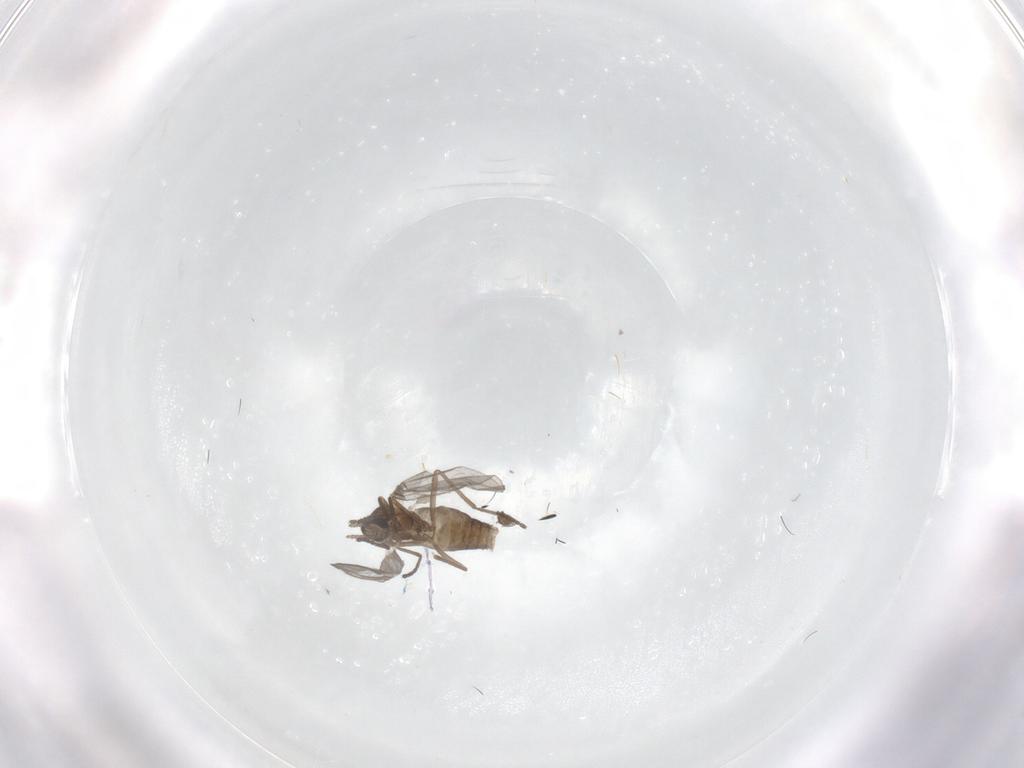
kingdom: Animalia
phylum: Arthropoda
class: Insecta
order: Diptera
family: Cecidomyiidae
